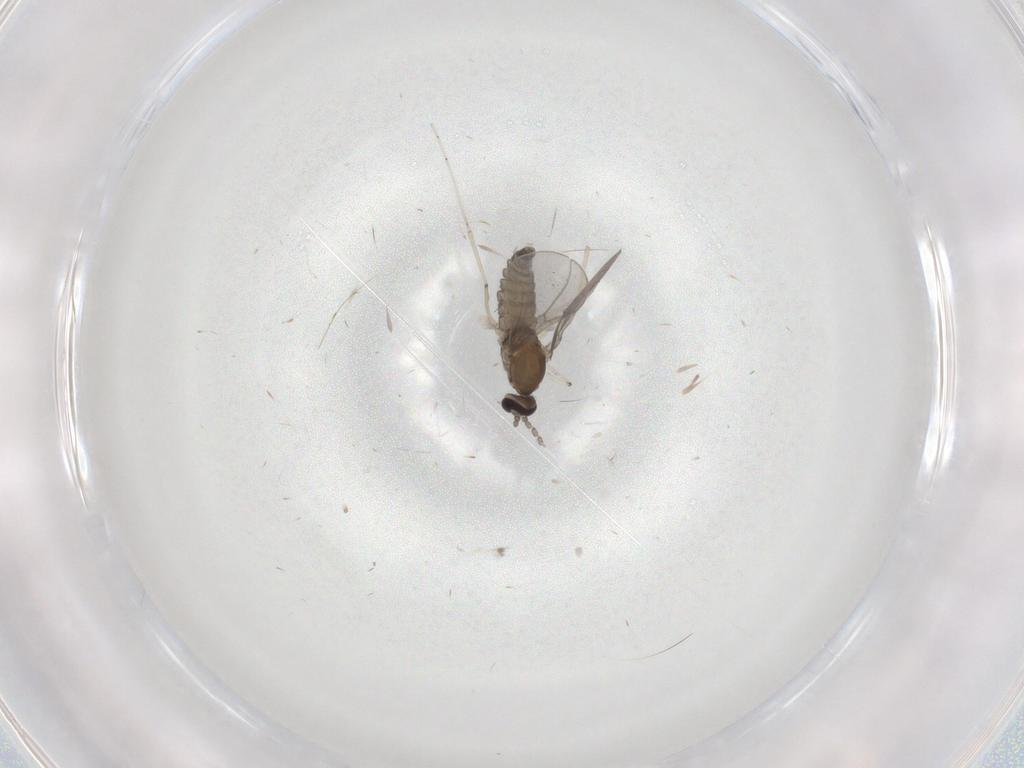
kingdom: Animalia
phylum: Arthropoda
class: Insecta
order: Diptera
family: Cecidomyiidae
